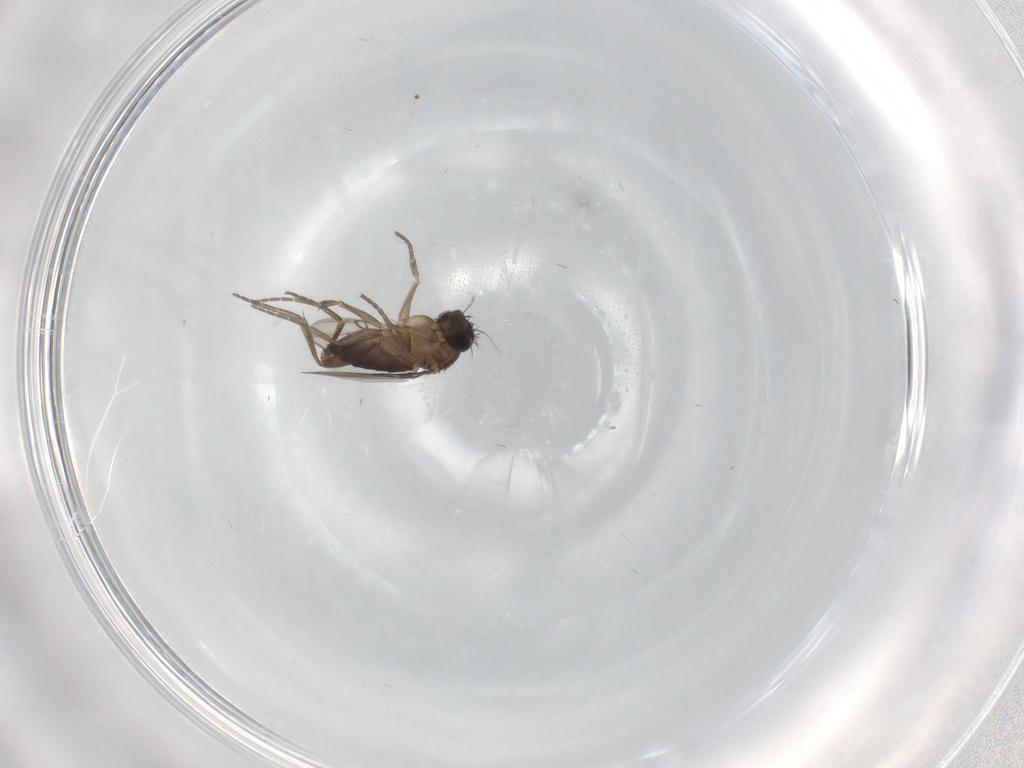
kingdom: Animalia
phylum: Arthropoda
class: Insecta
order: Diptera
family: Phoridae
